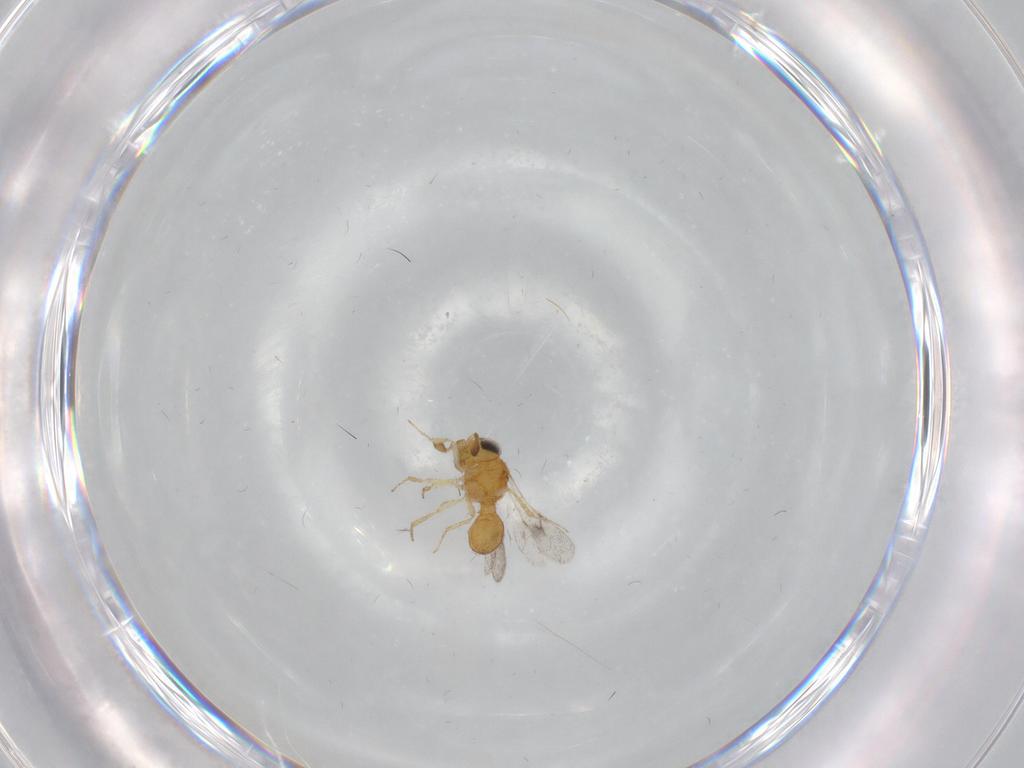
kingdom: Animalia
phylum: Arthropoda
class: Insecta
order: Hymenoptera
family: Scelionidae
